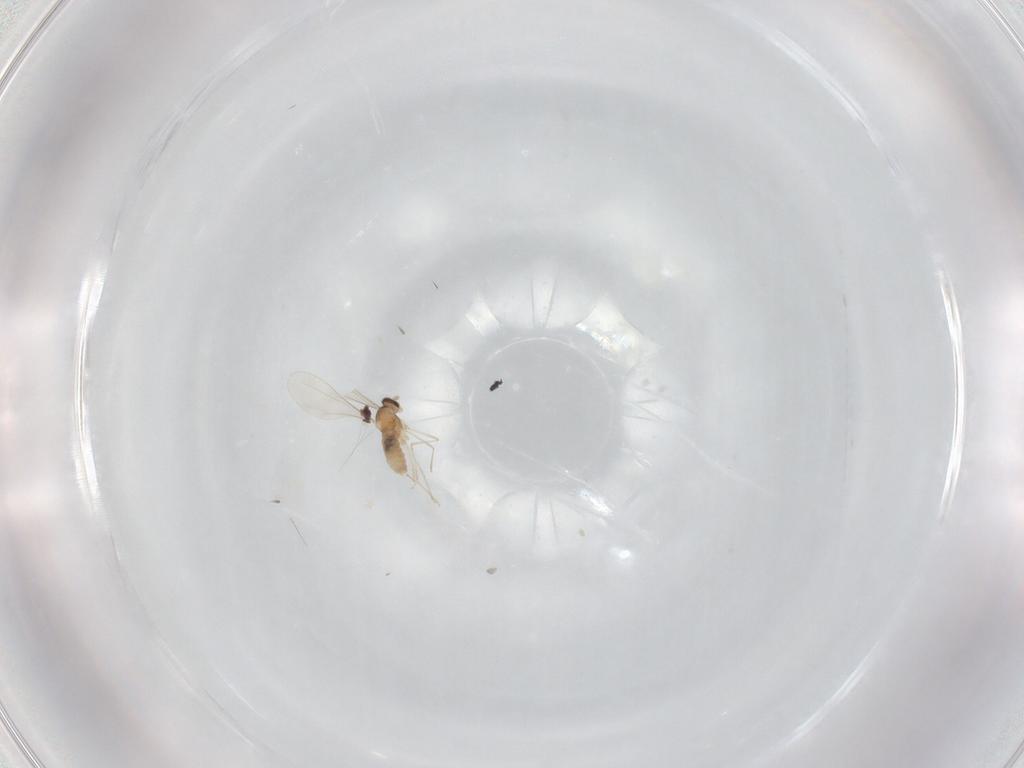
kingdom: Animalia
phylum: Arthropoda
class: Insecta
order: Diptera
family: Cecidomyiidae
